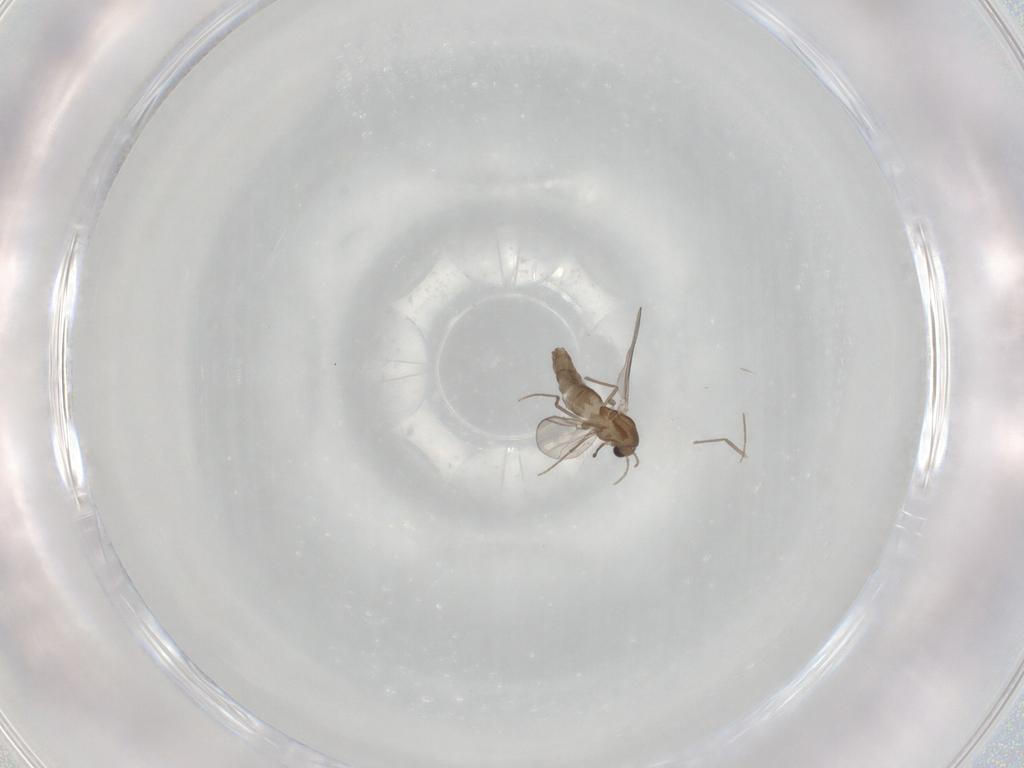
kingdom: Animalia
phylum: Arthropoda
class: Insecta
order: Diptera
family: Chironomidae
